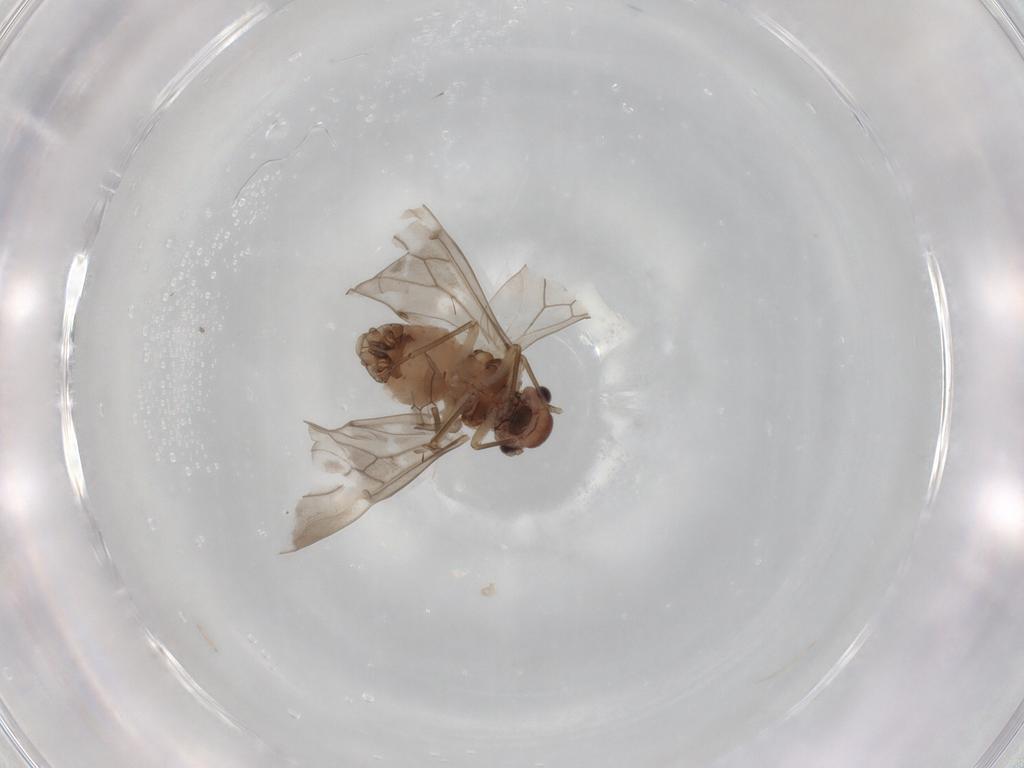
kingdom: Animalia
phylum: Arthropoda
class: Insecta
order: Psocodea
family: Peripsocidae
